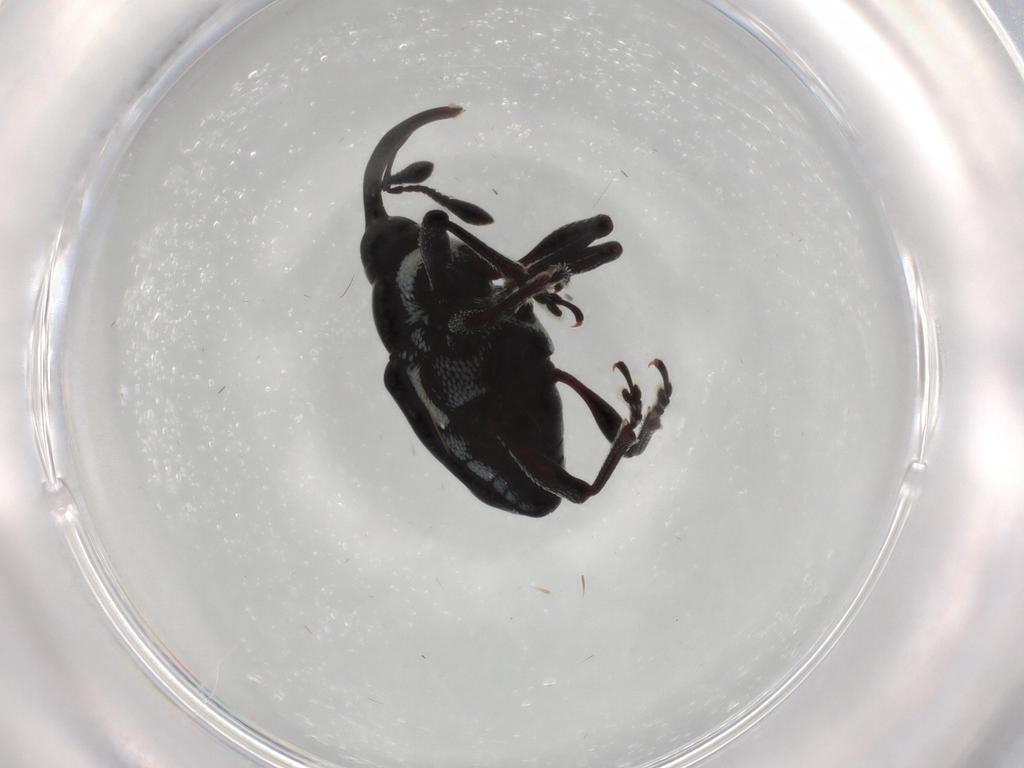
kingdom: Animalia
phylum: Arthropoda
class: Insecta
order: Coleoptera
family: Curculionidae
